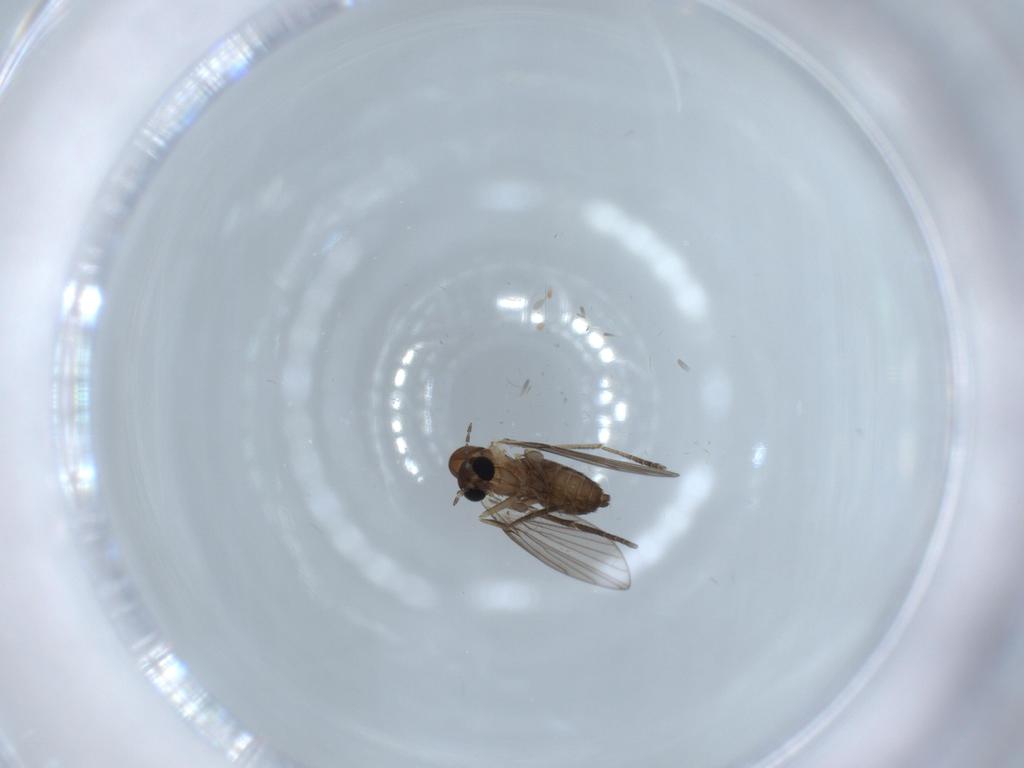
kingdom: Animalia
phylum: Arthropoda
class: Insecta
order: Diptera
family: Psychodidae
